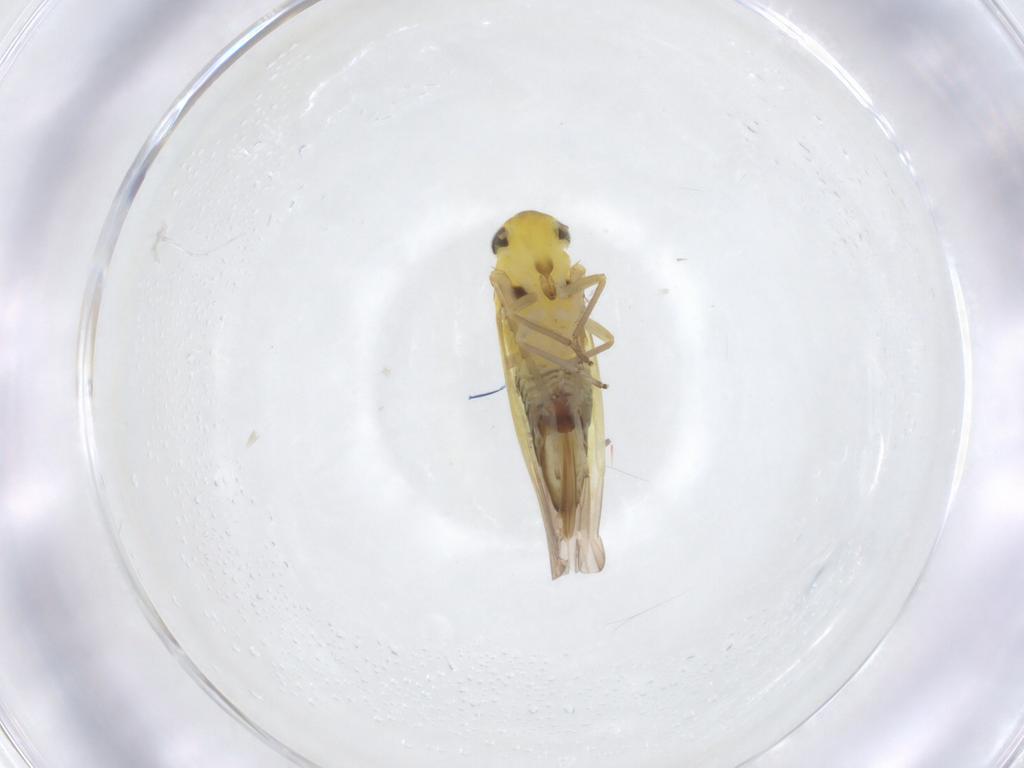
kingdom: Animalia
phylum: Arthropoda
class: Insecta
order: Hemiptera
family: Cicadellidae
